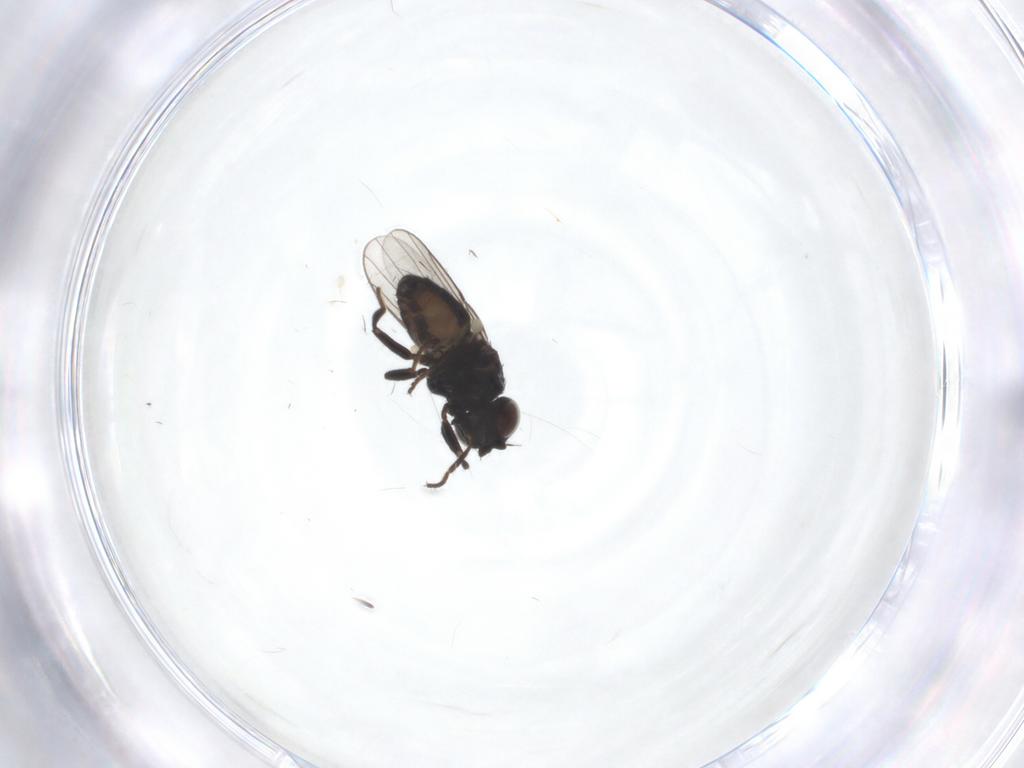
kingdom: Animalia
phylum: Arthropoda
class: Insecta
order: Diptera
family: Chloropidae
